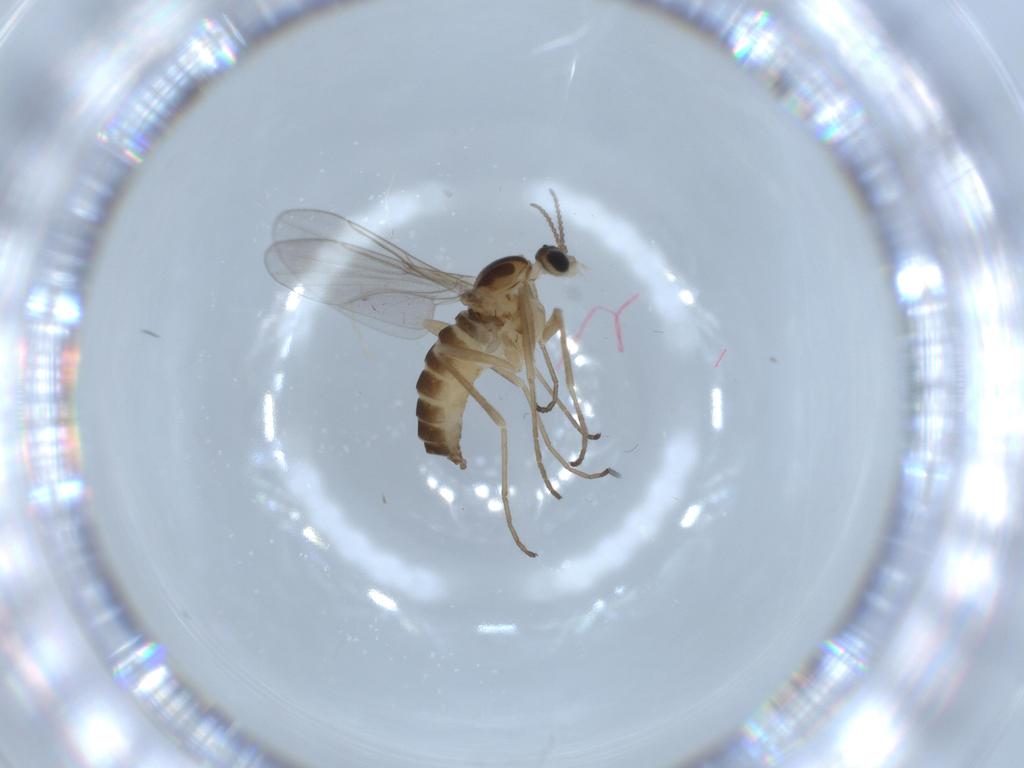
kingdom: Animalia
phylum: Arthropoda
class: Insecta
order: Diptera
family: Cecidomyiidae
